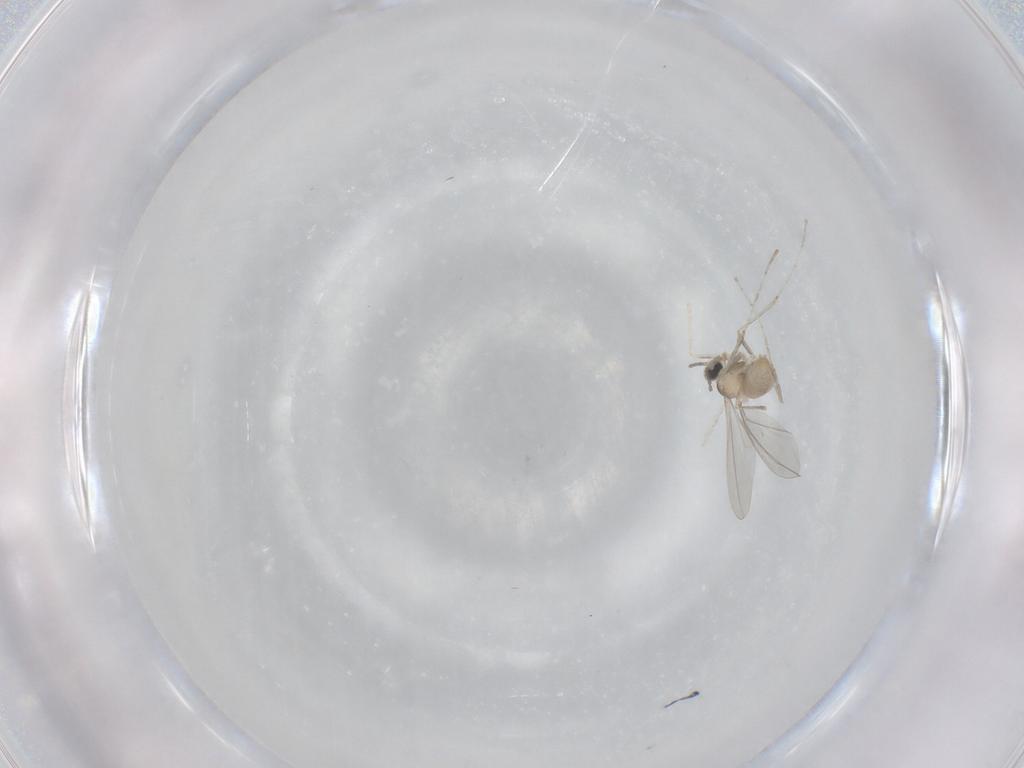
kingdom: Animalia
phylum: Arthropoda
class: Insecta
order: Diptera
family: Cecidomyiidae
